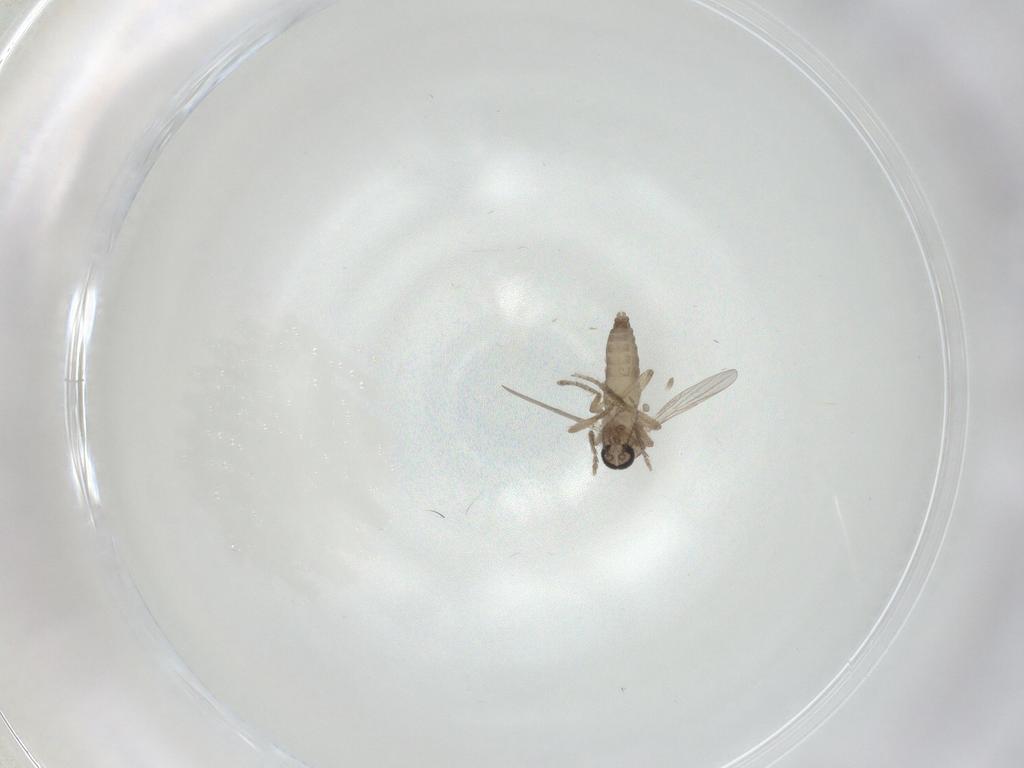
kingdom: Animalia
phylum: Arthropoda
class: Insecta
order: Diptera
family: Ceratopogonidae
